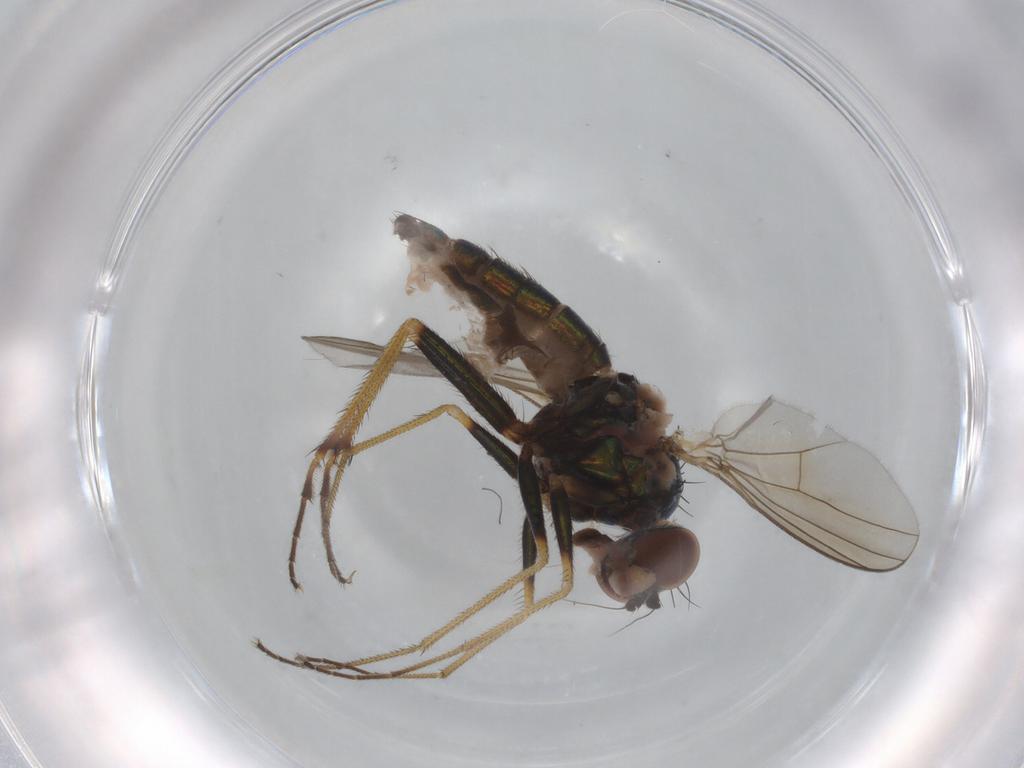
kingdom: Animalia
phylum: Arthropoda
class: Insecta
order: Diptera
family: Dolichopodidae
